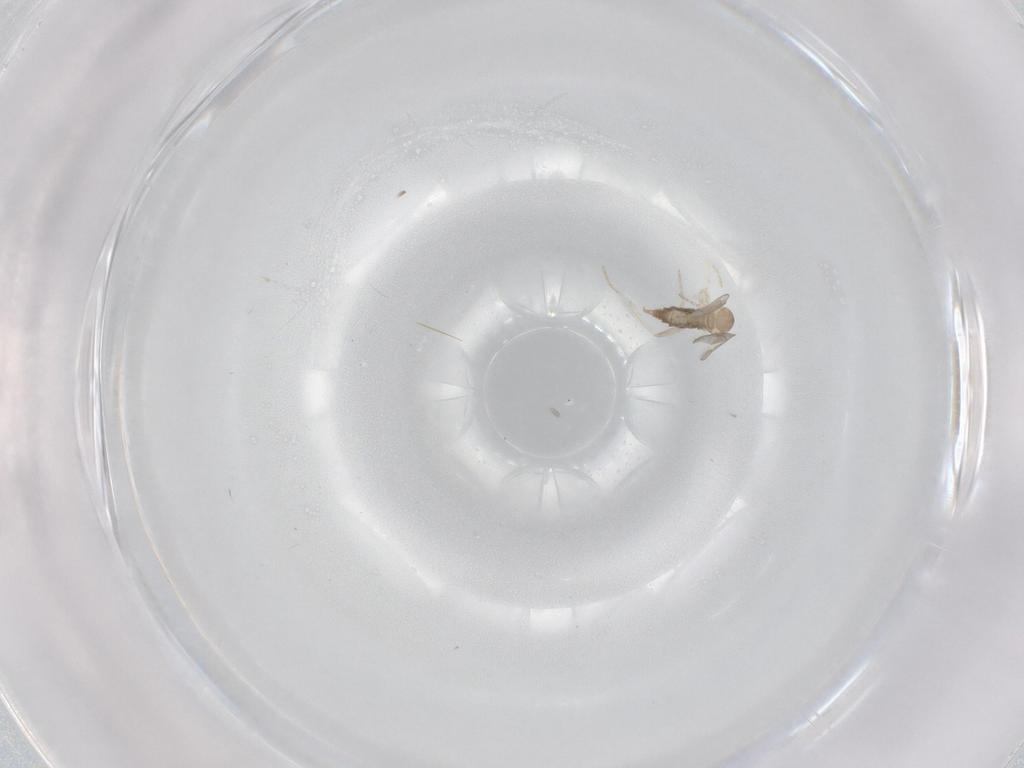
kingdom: Animalia
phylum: Arthropoda
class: Insecta
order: Diptera
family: Cecidomyiidae
